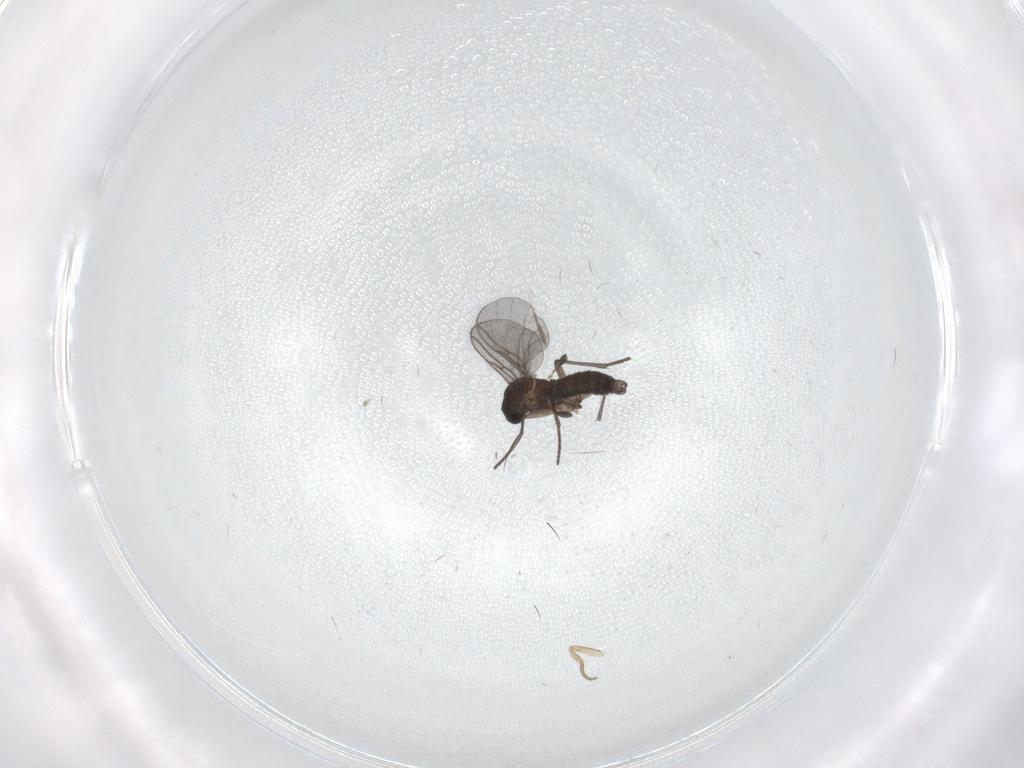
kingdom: Animalia
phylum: Arthropoda
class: Insecta
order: Diptera
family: Phoridae
